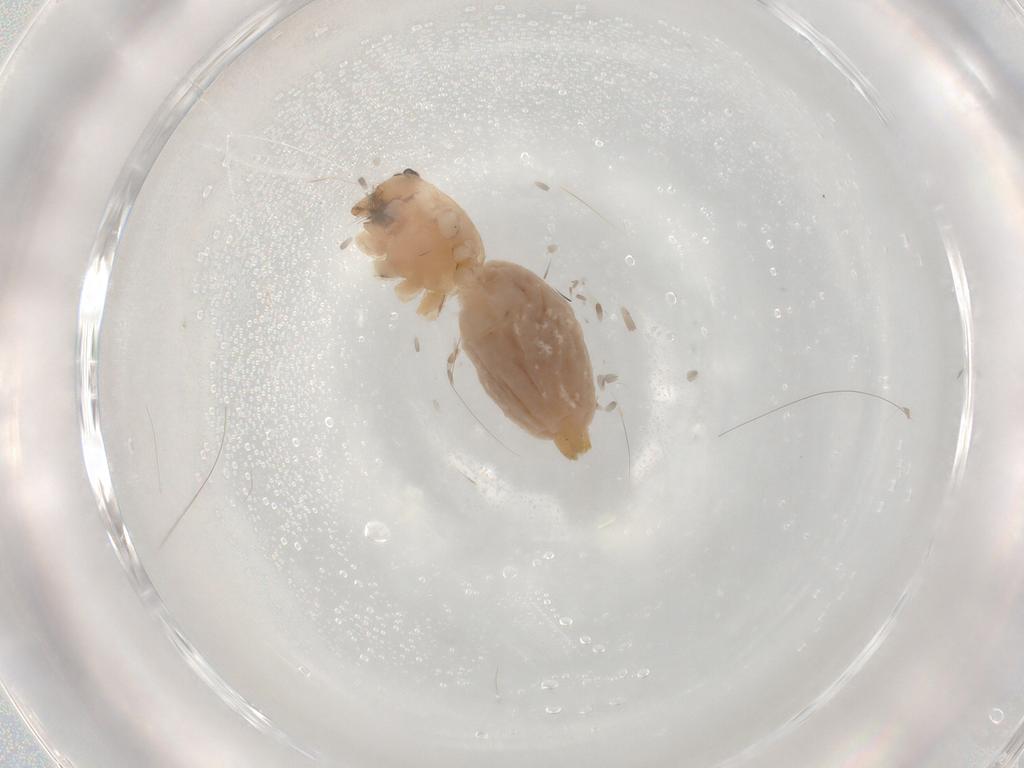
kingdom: Animalia
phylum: Arthropoda
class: Arachnida
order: Araneae
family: Cheiracanthiidae
